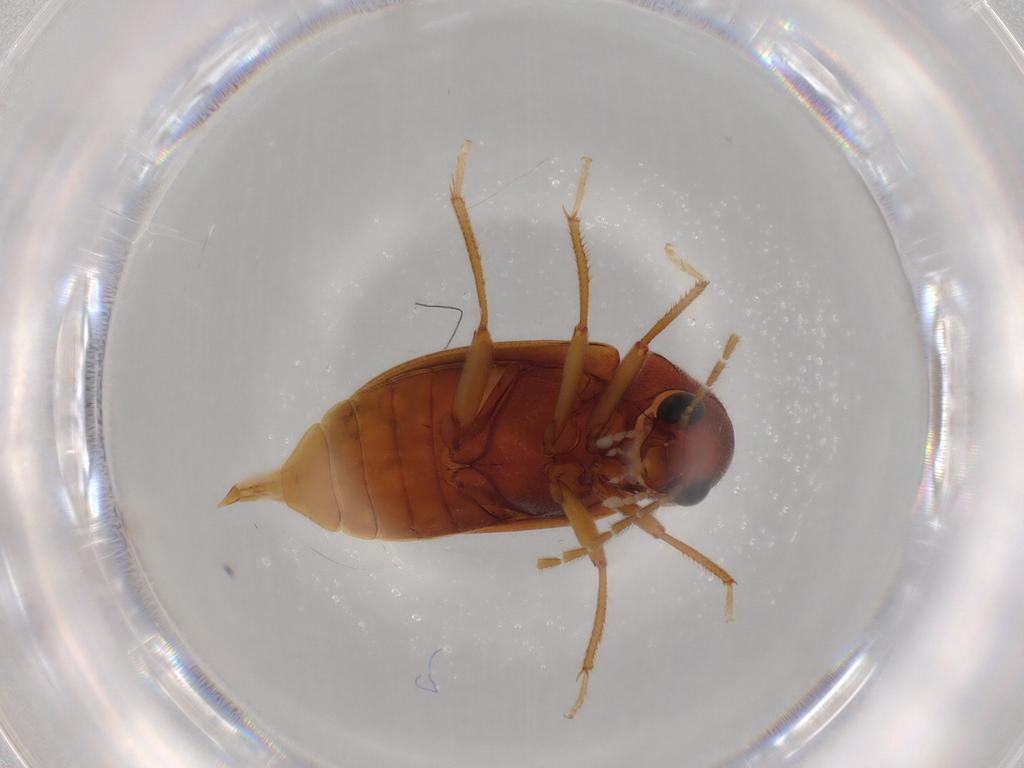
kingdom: Animalia
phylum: Arthropoda
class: Insecta
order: Coleoptera
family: Ptilodactylidae
